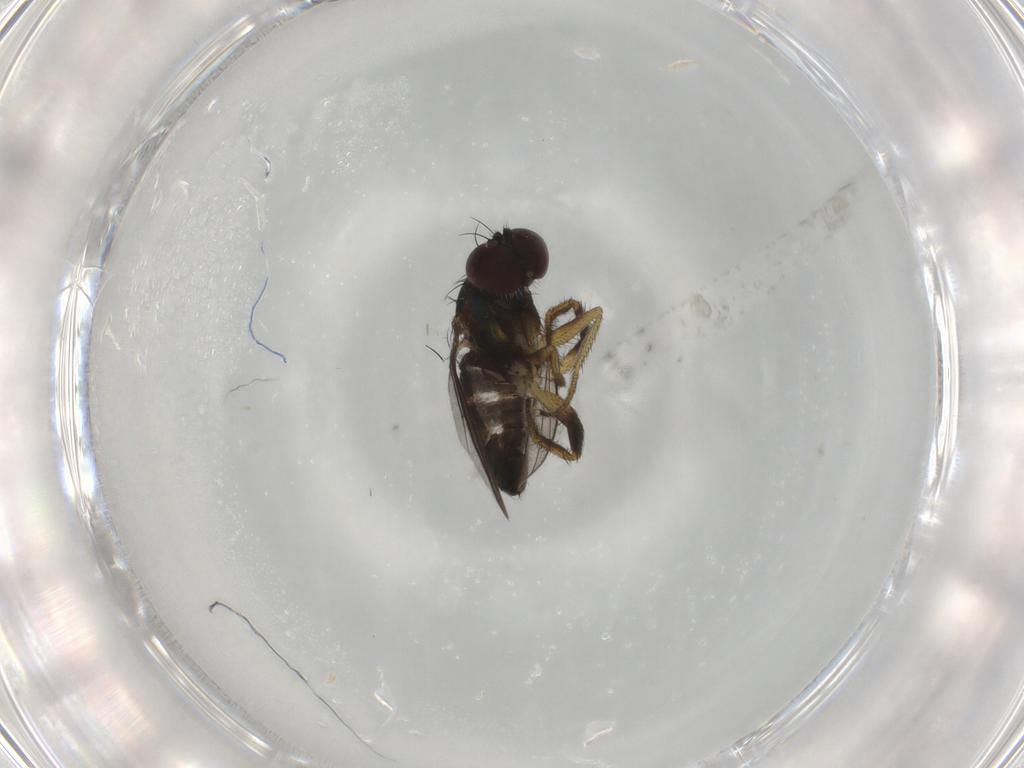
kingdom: Animalia
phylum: Arthropoda
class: Insecta
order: Diptera
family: Dolichopodidae
